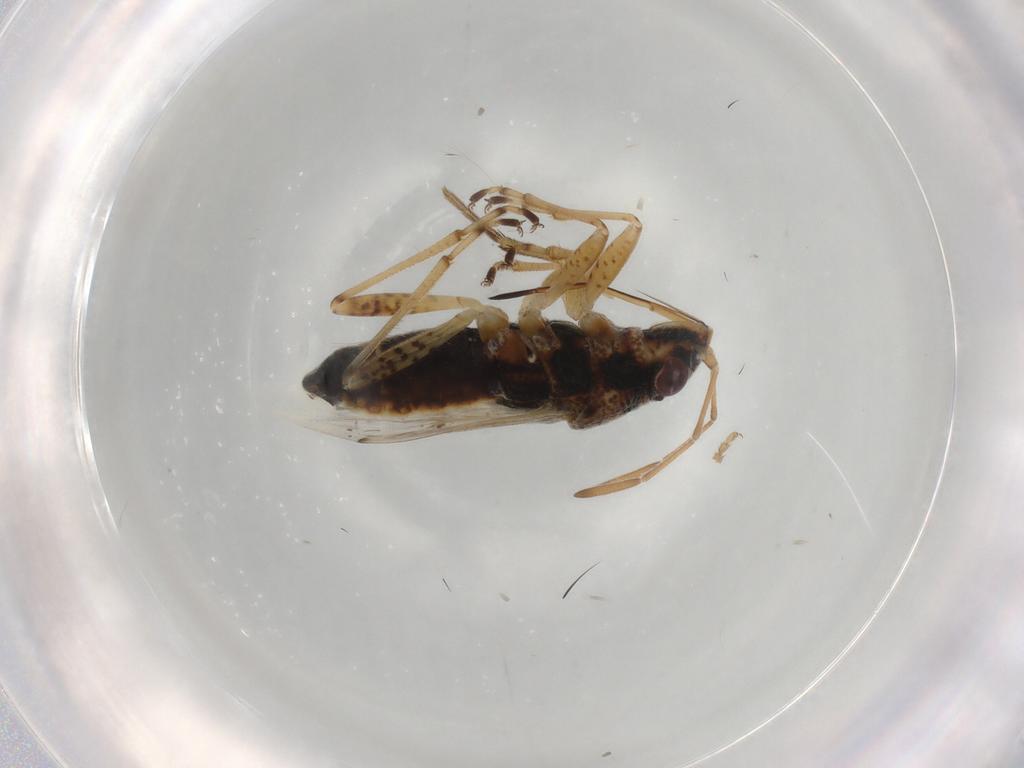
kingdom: Animalia
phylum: Arthropoda
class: Insecta
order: Hemiptera
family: Lygaeidae
